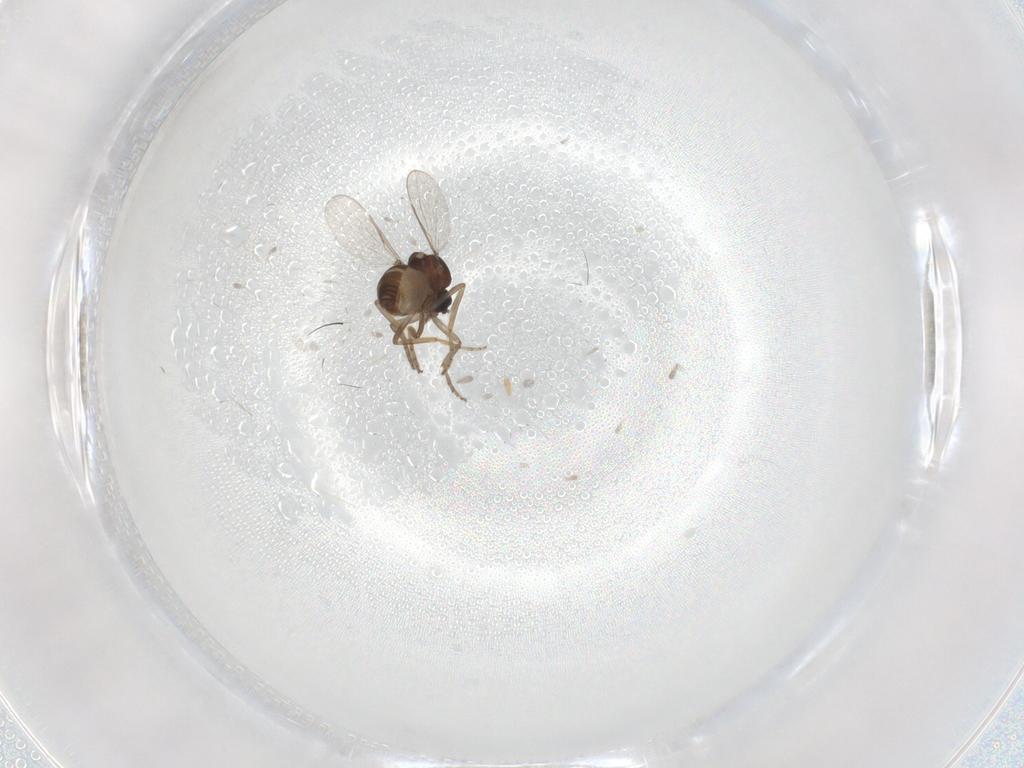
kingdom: Animalia
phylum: Arthropoda
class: Insecta
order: Diptera
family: Ceratopogonidae
